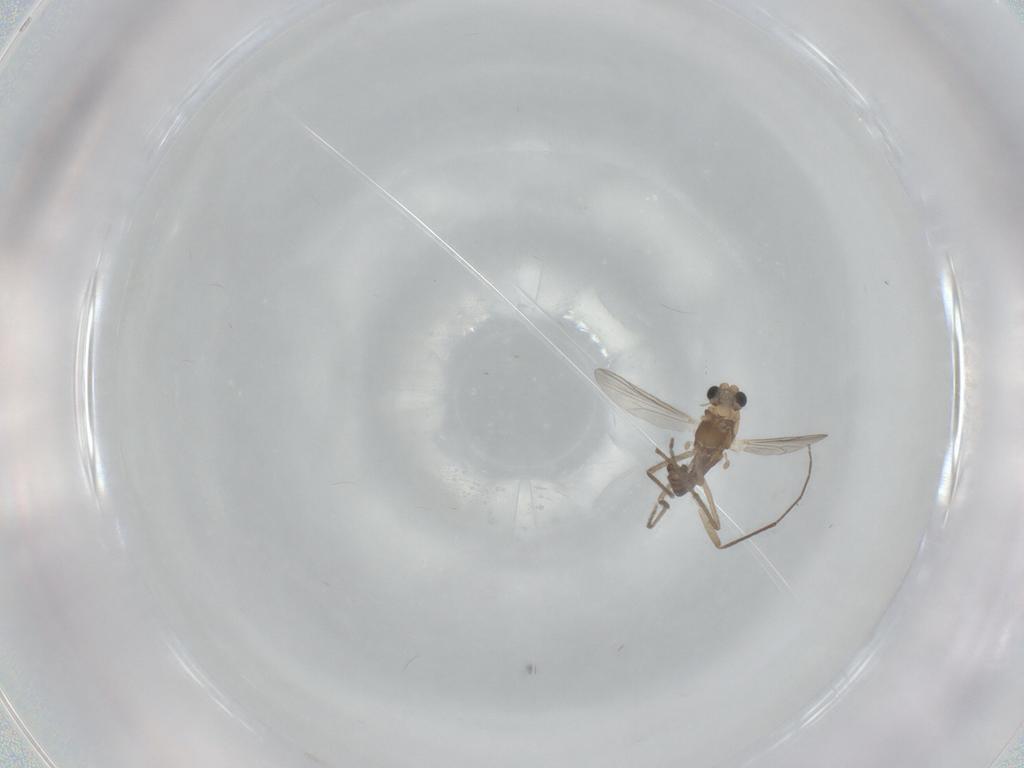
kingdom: Animalia
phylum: Arthropoda
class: Insecta
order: Diptera
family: Chironomidae
